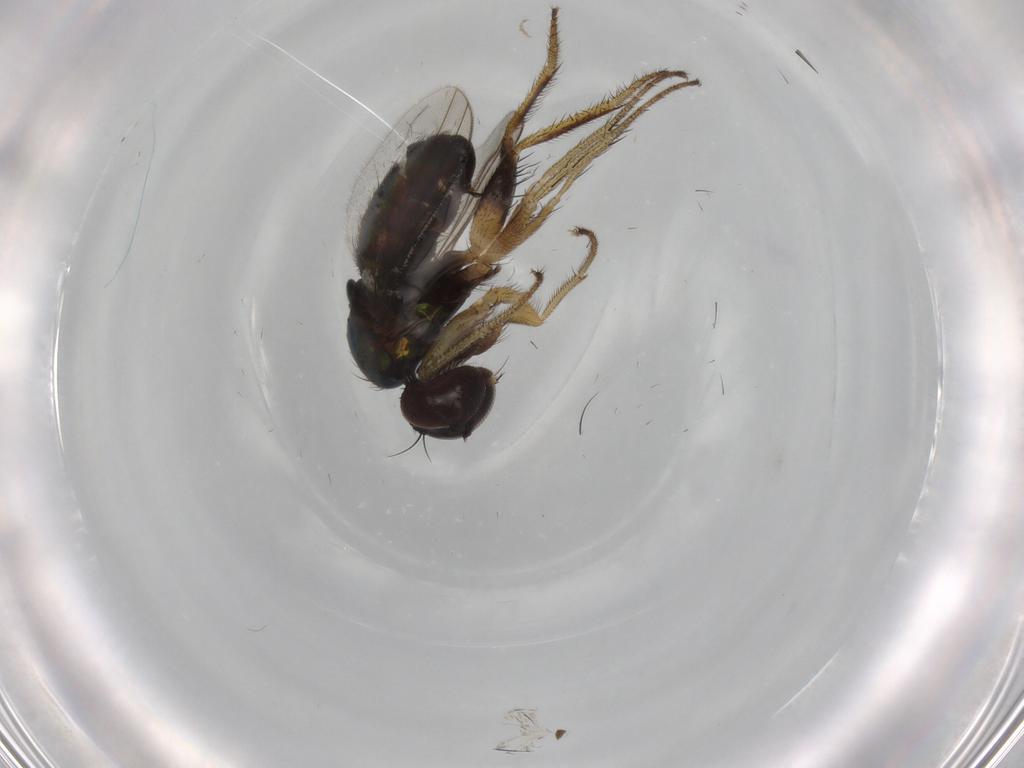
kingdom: Animalia
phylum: Arthropoda
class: Insecta
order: Diptera
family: Dolichopodidae
